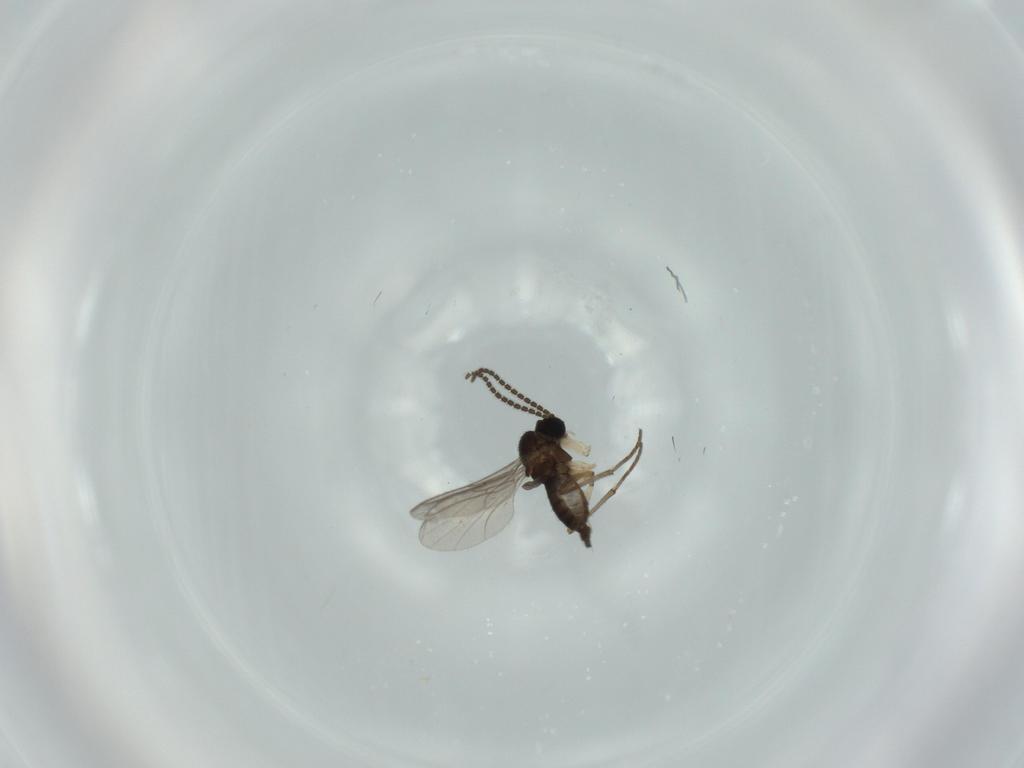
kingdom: Animalia
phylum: Arthropoda
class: Insecta
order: Diptera
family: Sciaridae
